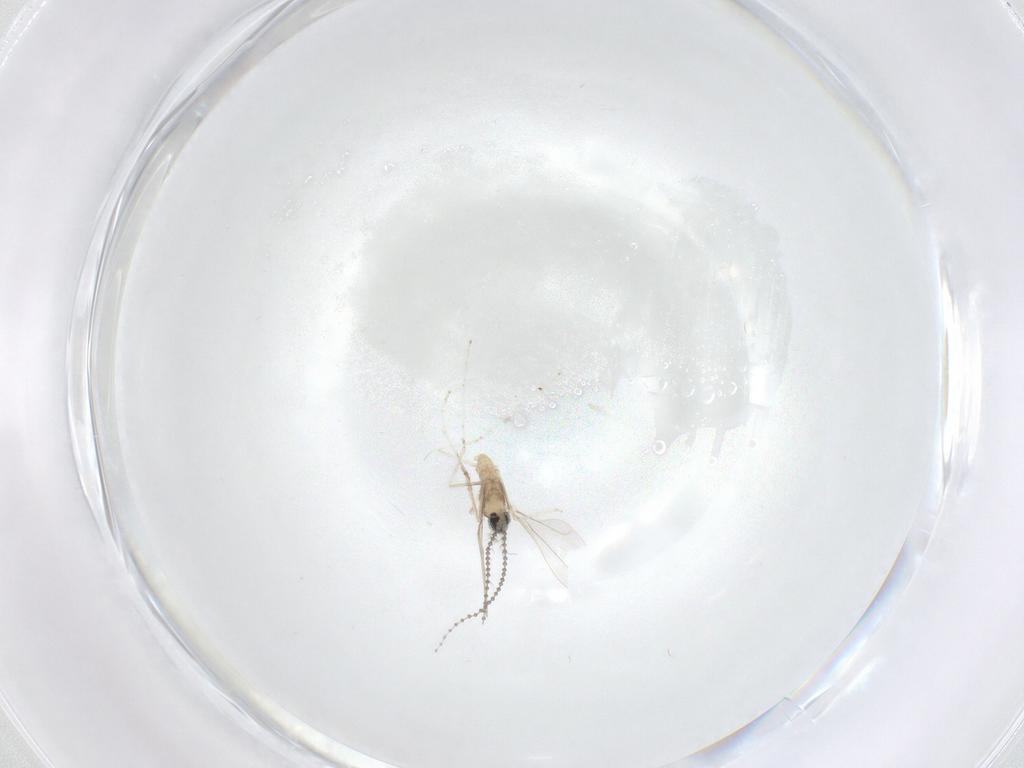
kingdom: Animalia
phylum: Arthropoda
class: Insecta
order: Diptera
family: Cecidomyiidae
